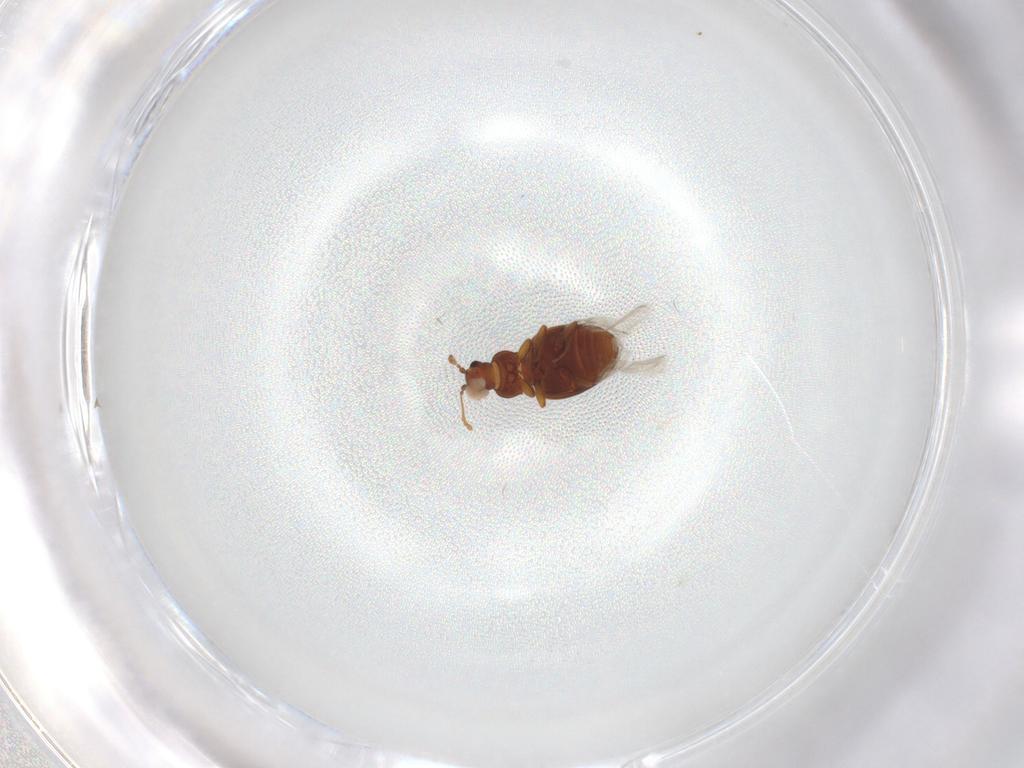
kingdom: Animalia
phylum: Arthropoda
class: Insecta
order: Coleoptera
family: Latridiidae
